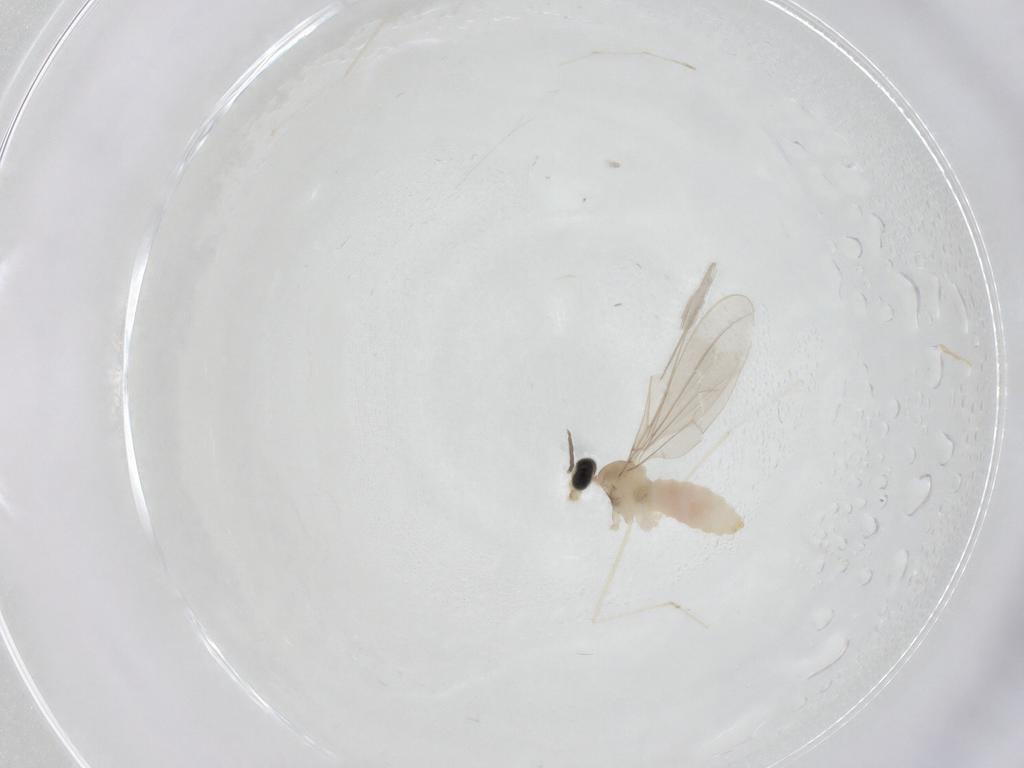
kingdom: Animalia
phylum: Arthropoda
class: Insecta
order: Diptera
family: Cecidomyiidae
